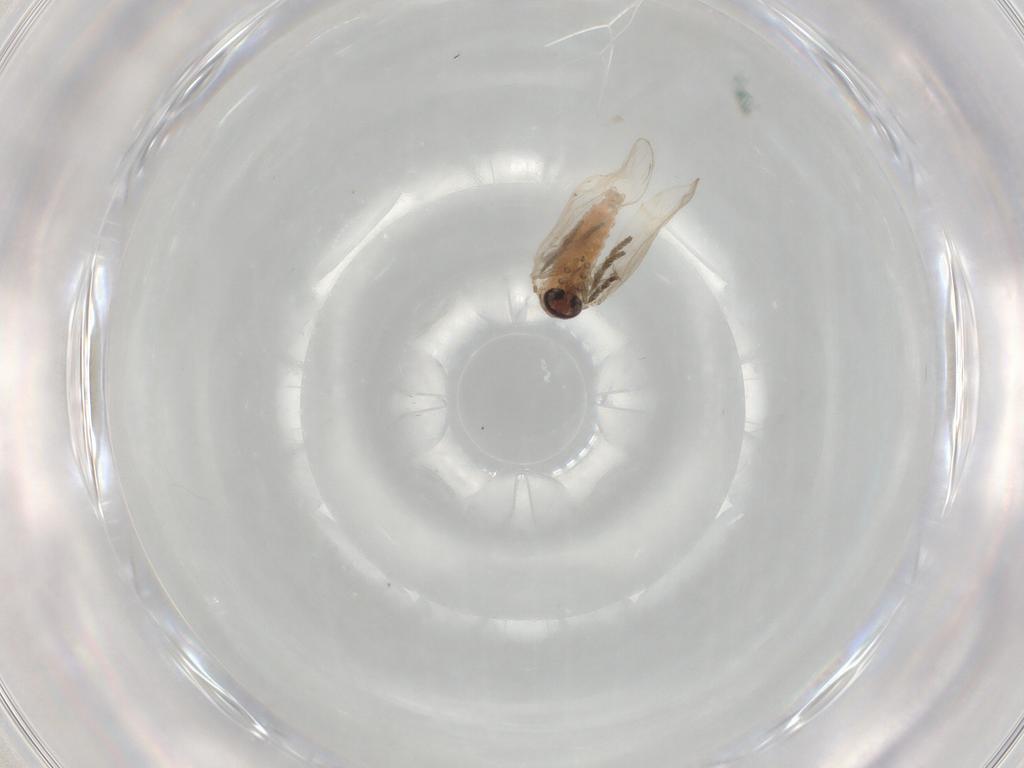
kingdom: Animalia
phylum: Arthropoda
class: Insecta
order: Diptera
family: Psychodidae
